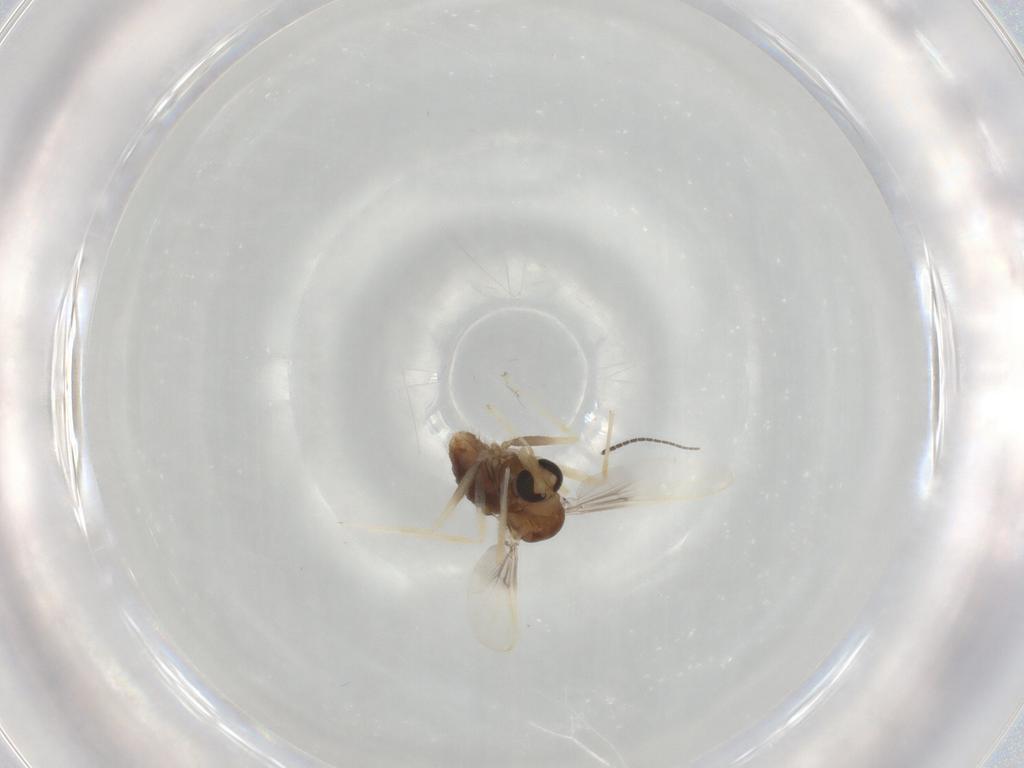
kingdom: Animalia
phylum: Arthropoda
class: Insecta
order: Diptera
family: Chironomidae
